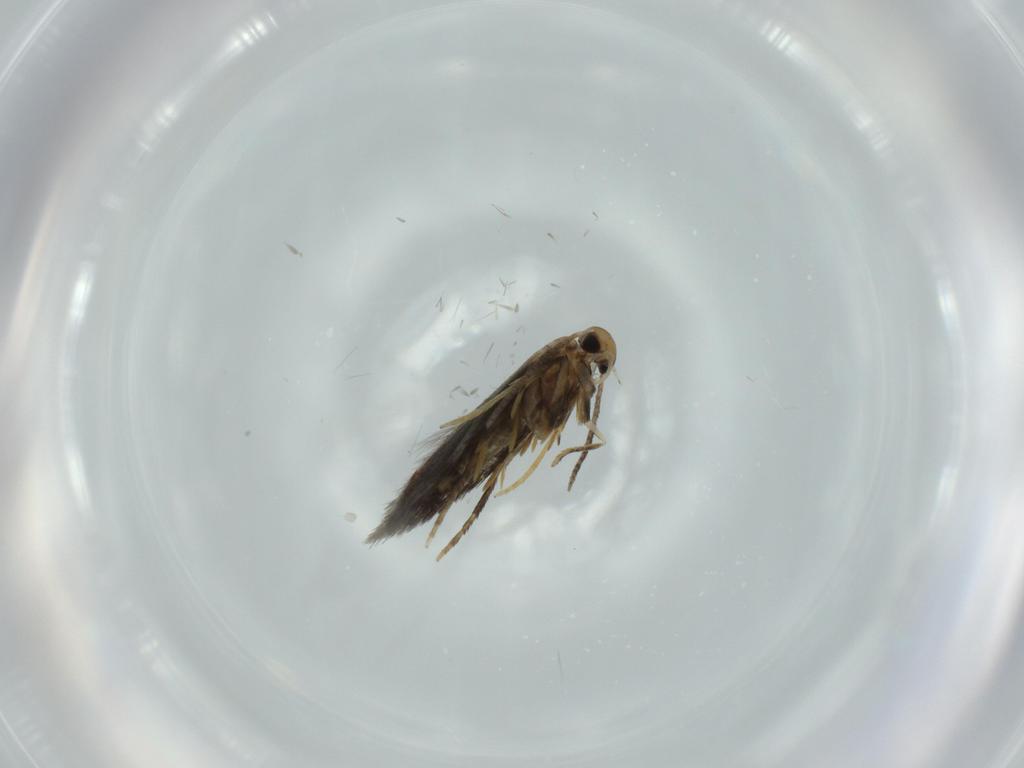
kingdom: Animalia
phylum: Arthropoda
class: Insecta
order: Lepidoptera
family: Heliozelidae
